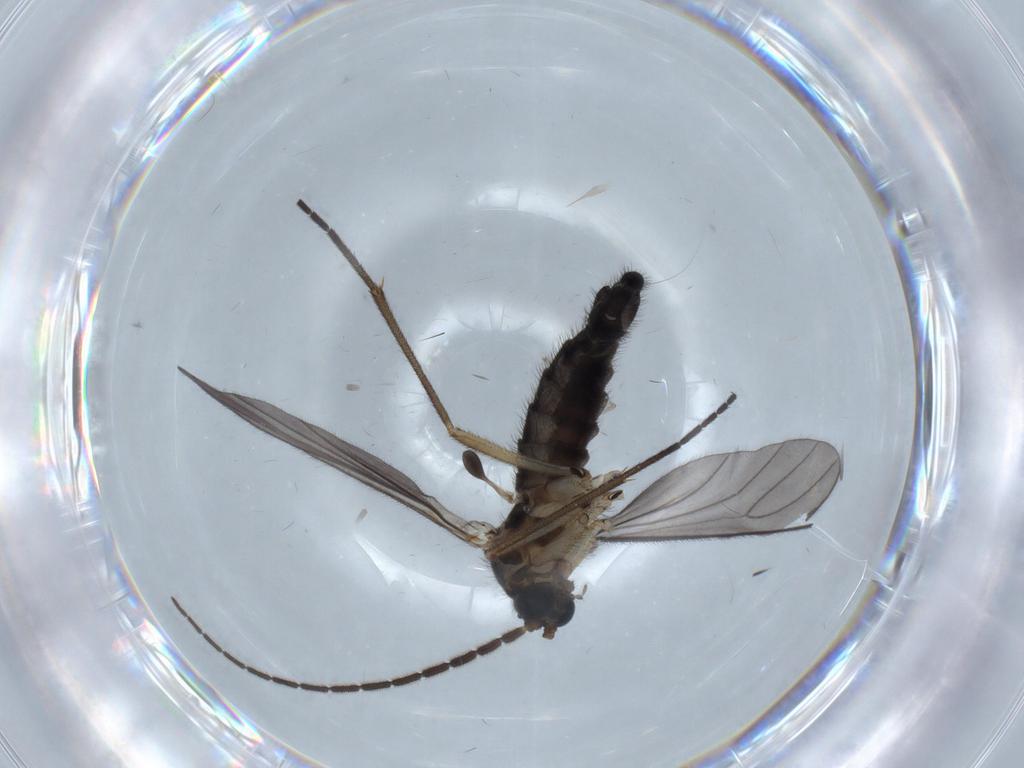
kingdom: Animalia
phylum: Arthropoda
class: Insecta
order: Diptera
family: Sciaridae
